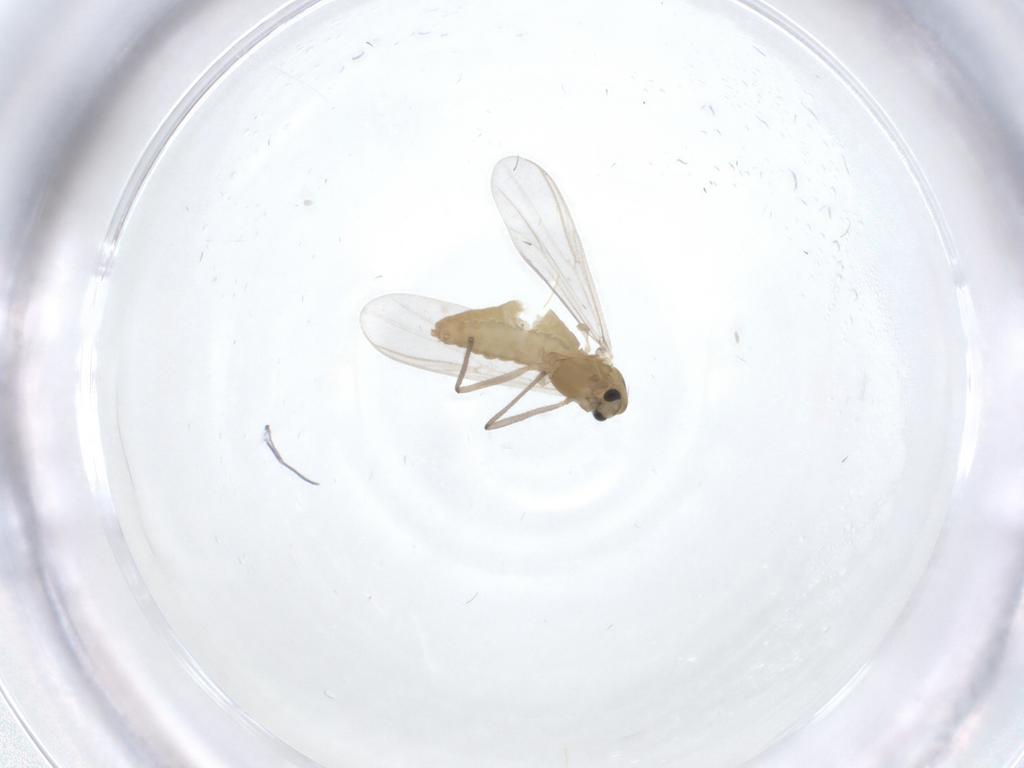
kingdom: Animalia
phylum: Arthropoda
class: Insecta
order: Diptera
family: Chironomidae
